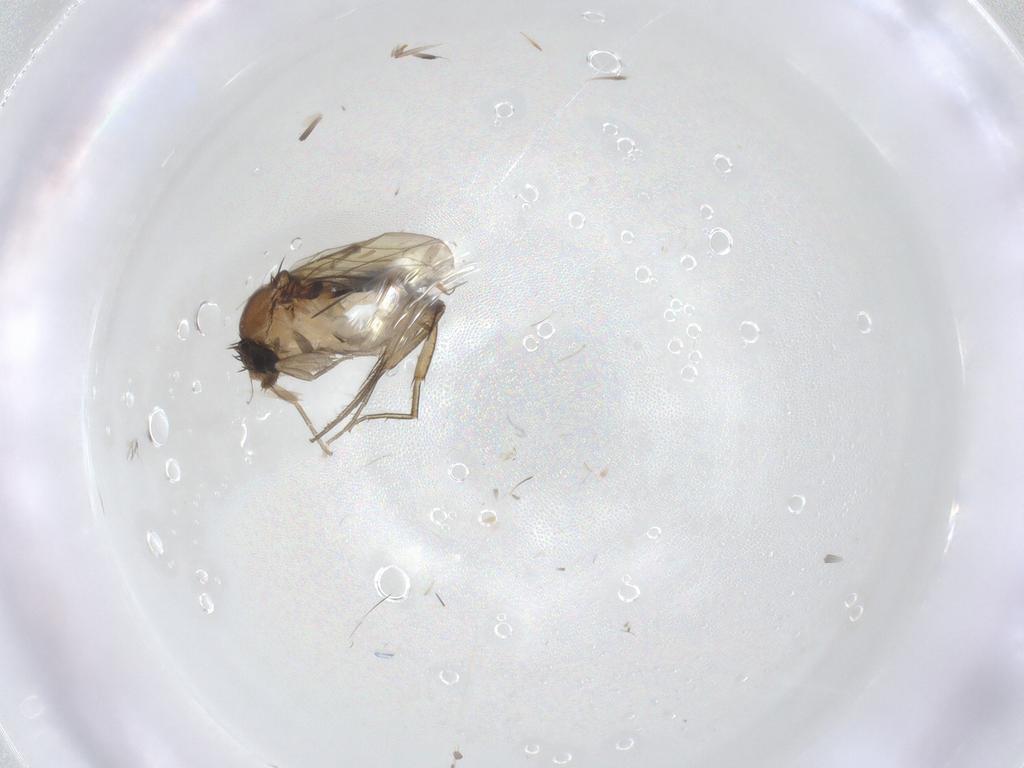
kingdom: Animalia
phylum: Arthropoda
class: Insecta
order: Diptera
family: Phoridae
